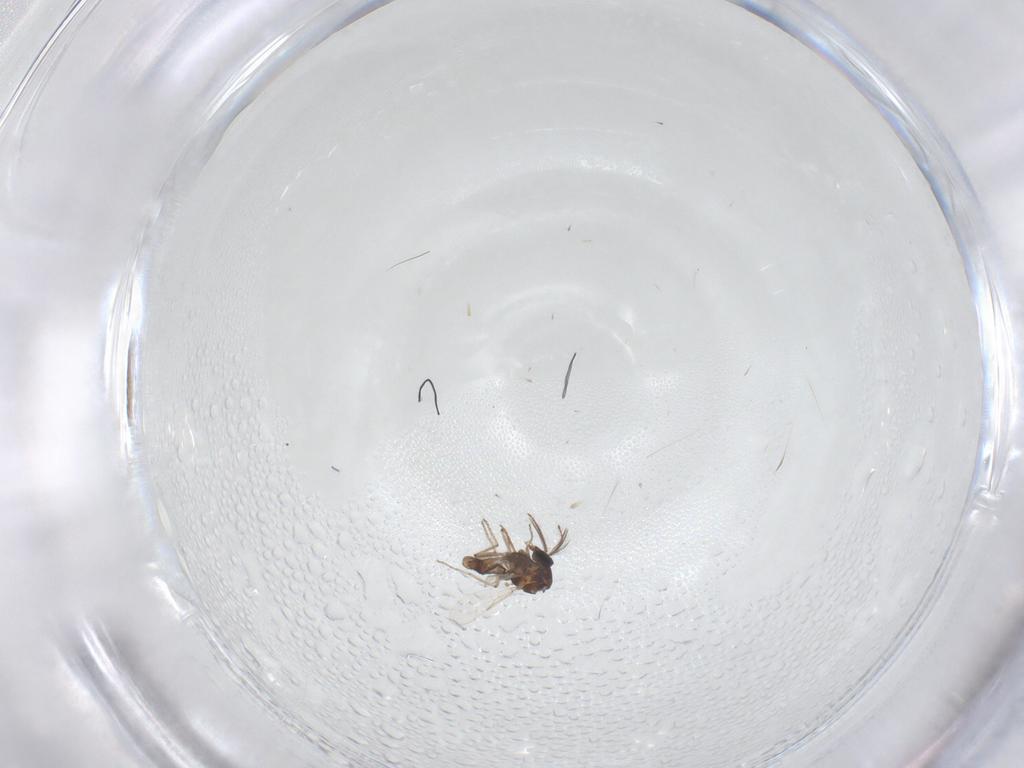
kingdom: Animalia
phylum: Arthropoda
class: Insecta
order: Diptera
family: Ceratopogonidae
